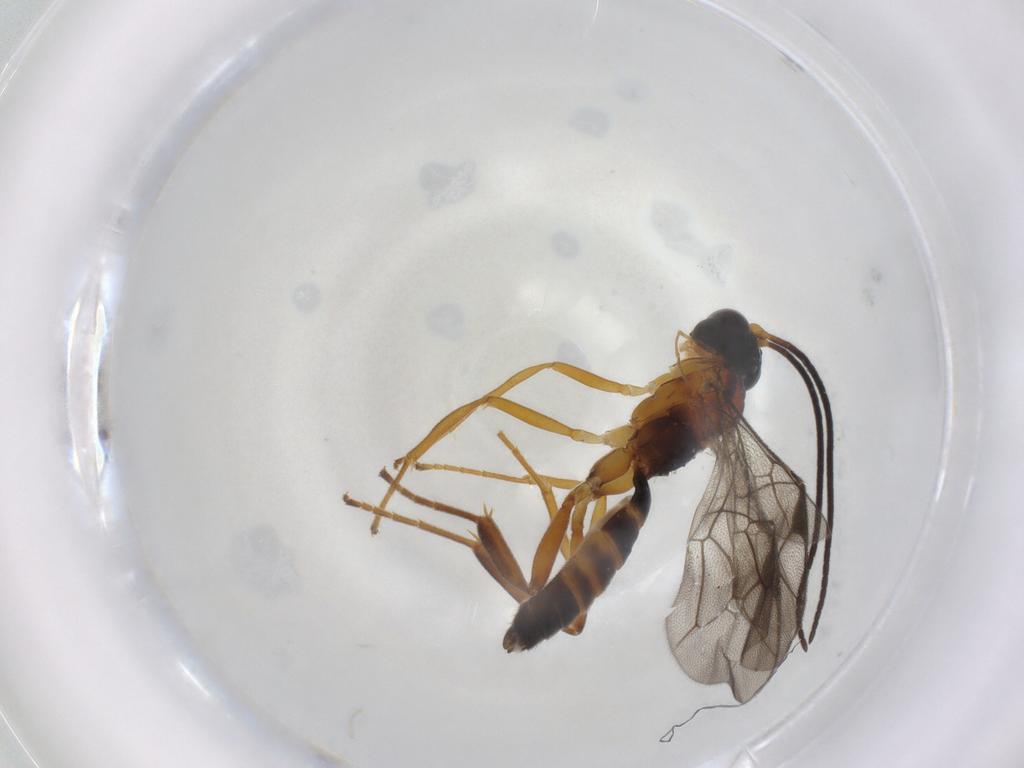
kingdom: Animalia
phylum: Arthropoda
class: Insecta
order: Hymenoptera
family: Ichneumonidae
